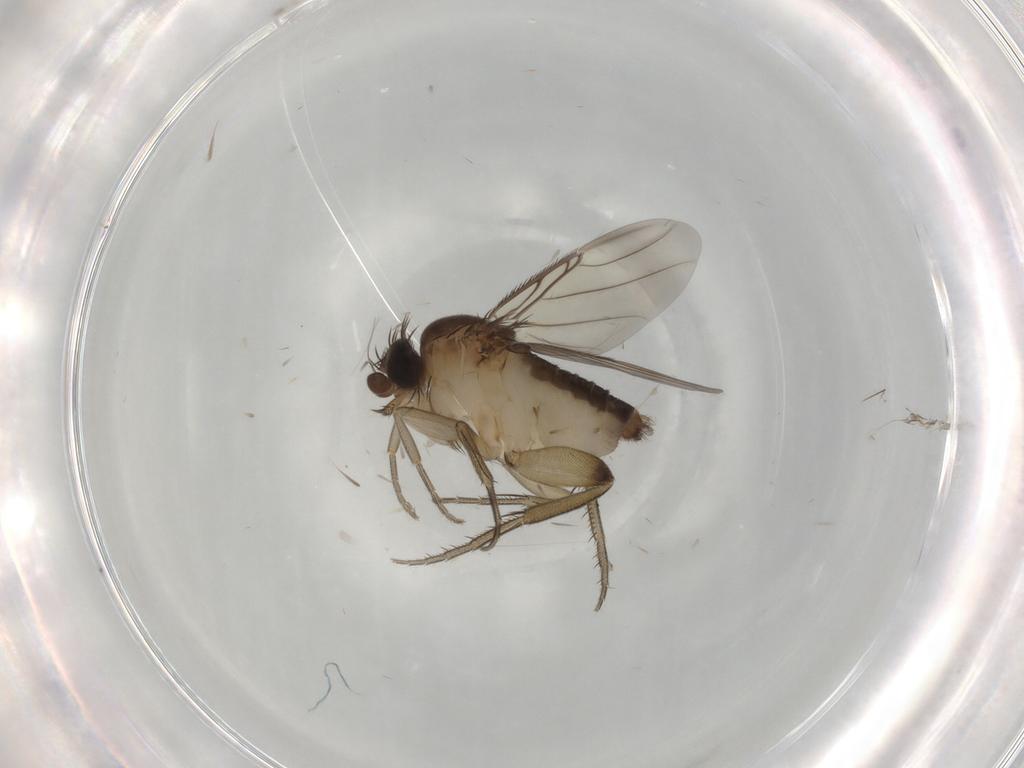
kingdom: Animalia
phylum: Arthropoda
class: Insecta
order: Diptera
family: Phoridae
